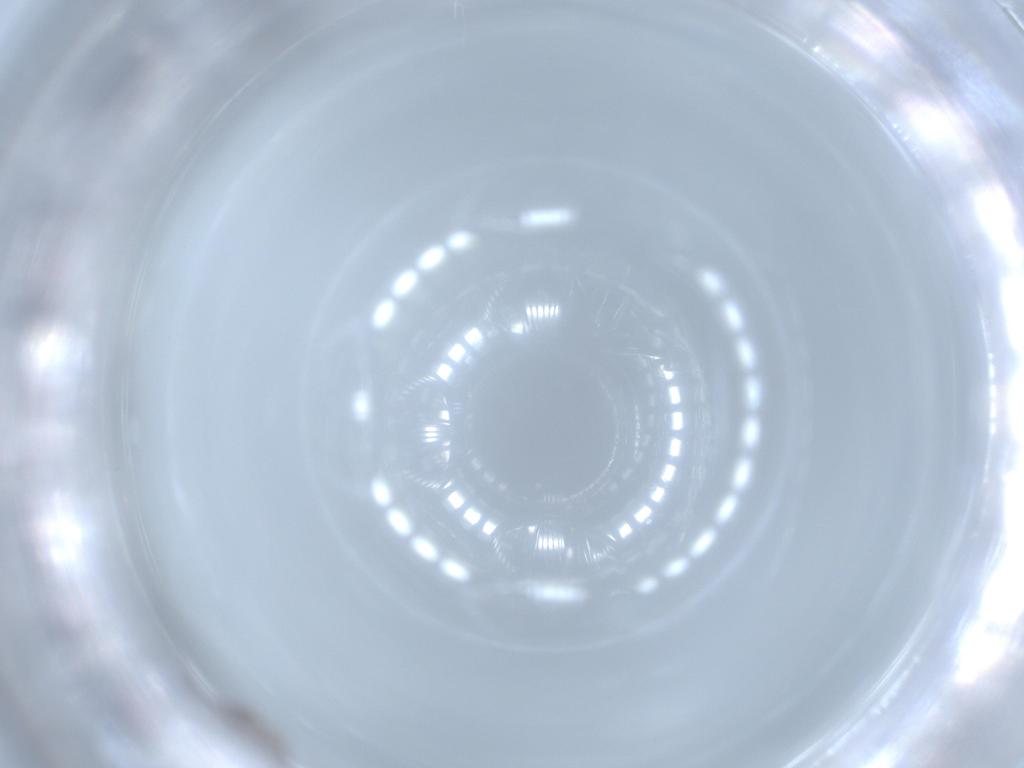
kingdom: Animalia
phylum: Arthropoda
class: Insecta
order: Diptera
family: Cecidomyiidae
